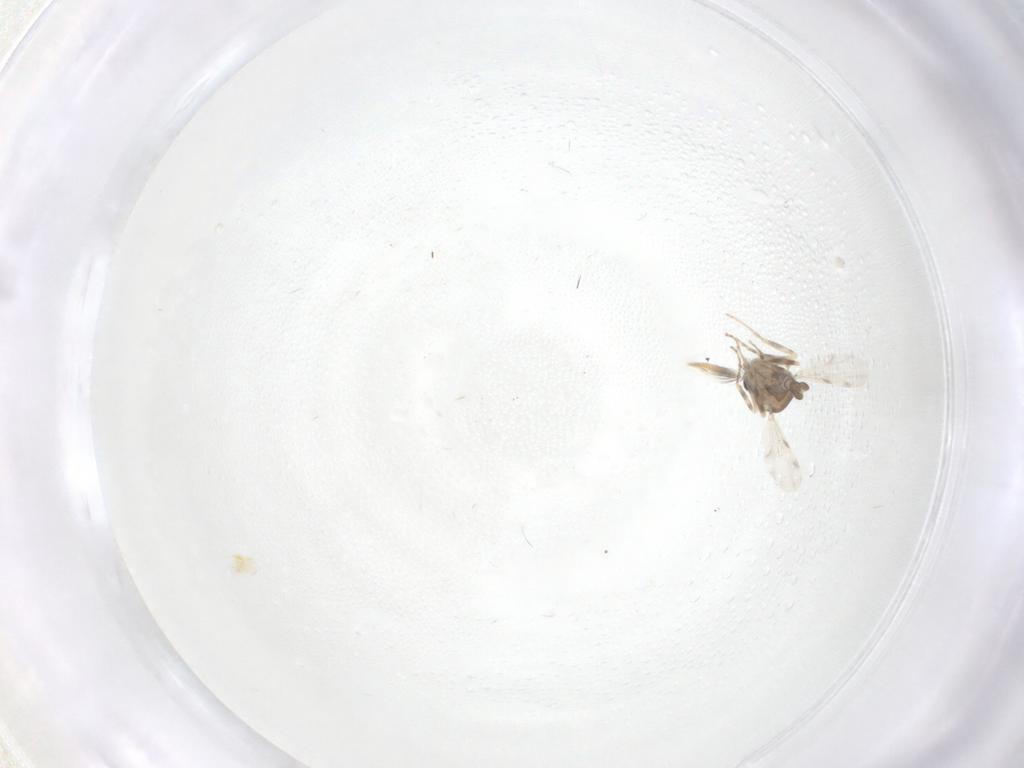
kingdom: Animalia
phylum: Arthropoda
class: Insecta
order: Diptera
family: Ceratopogonidae
